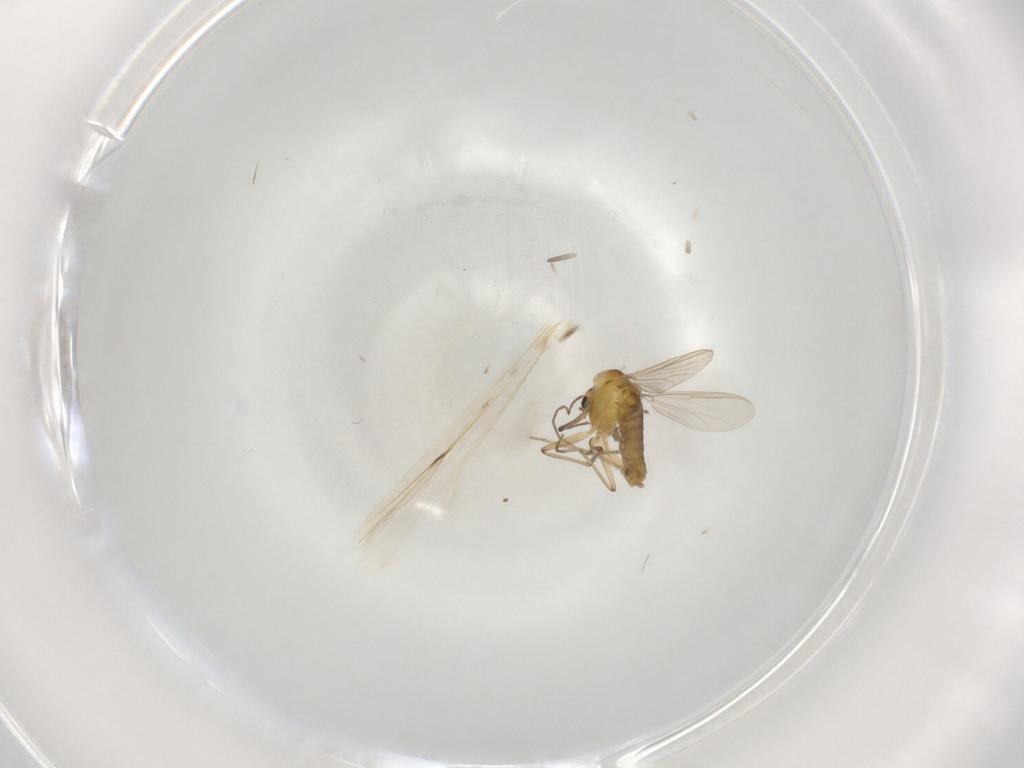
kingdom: Animalia
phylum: Arthropoda
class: Insecta
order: Diptera
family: Chironomidae
